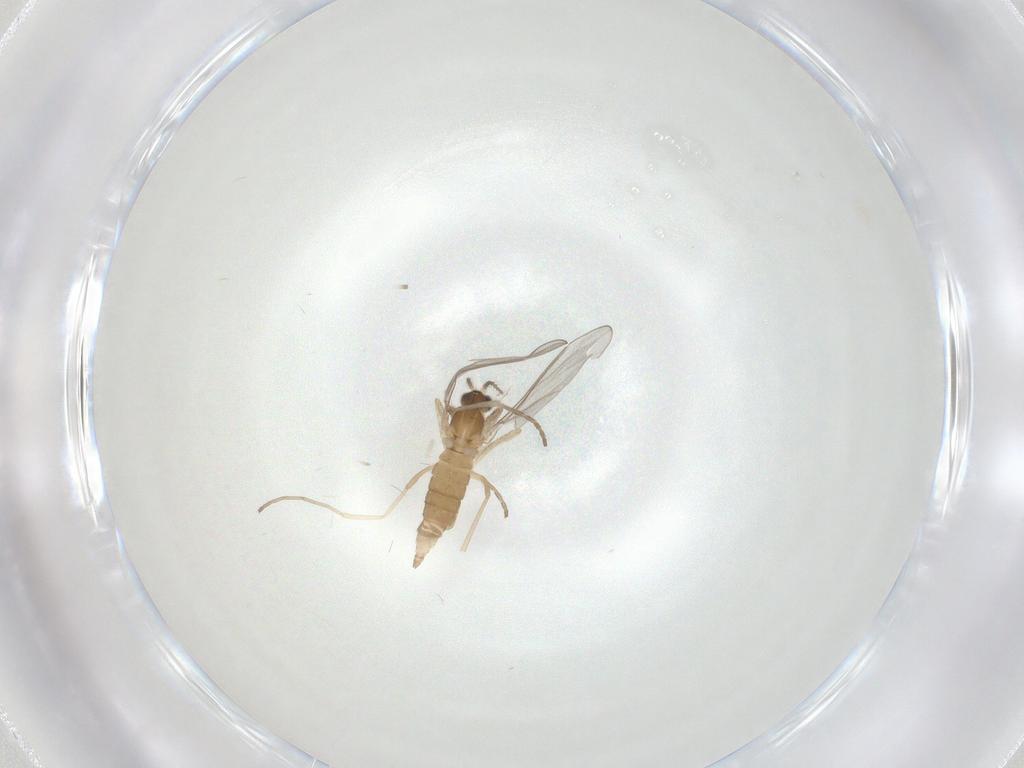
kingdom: Animalia
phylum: Arthropoda
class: Insecta
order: Diptera
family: Cecidomyiidae
